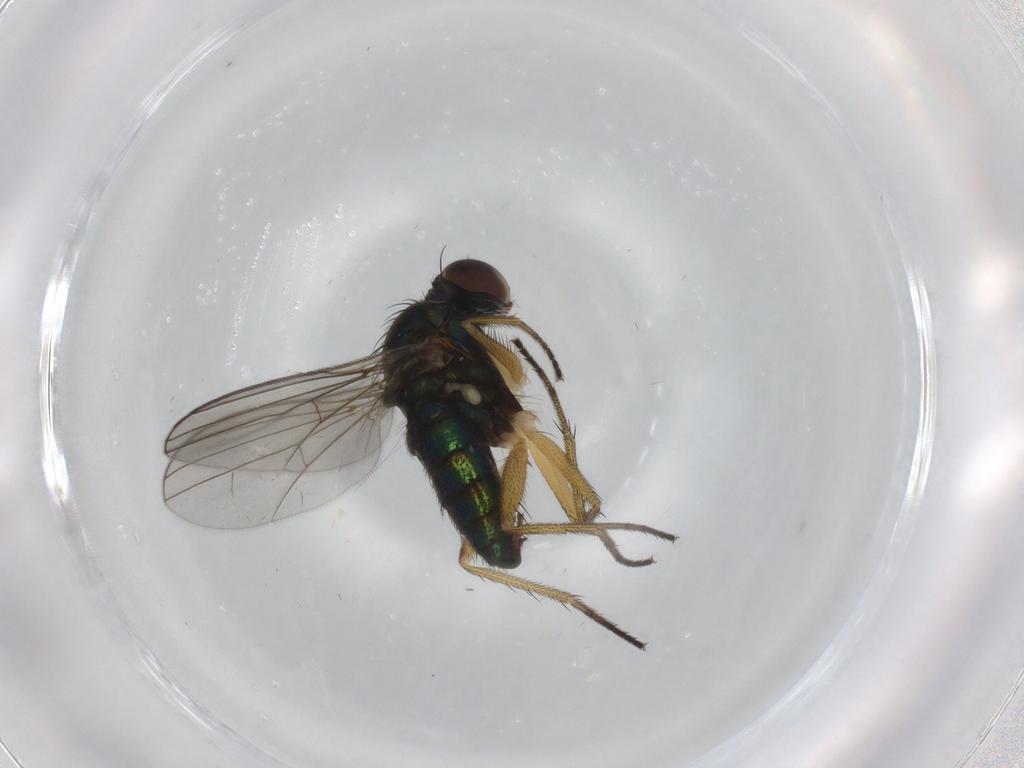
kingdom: Animalia
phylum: Arthropoda
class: Insecta
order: Diptera
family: Dolichopodidae
